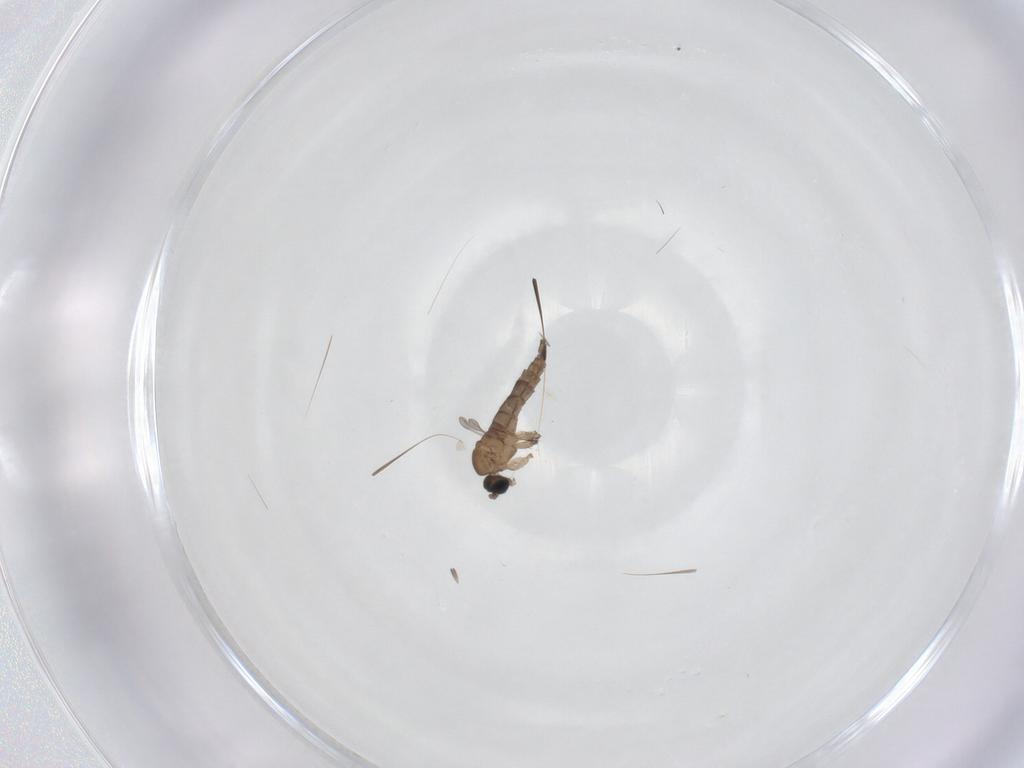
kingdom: Animalia
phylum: Arthropoda
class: Insecta
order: Diptera
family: Sciaridae
